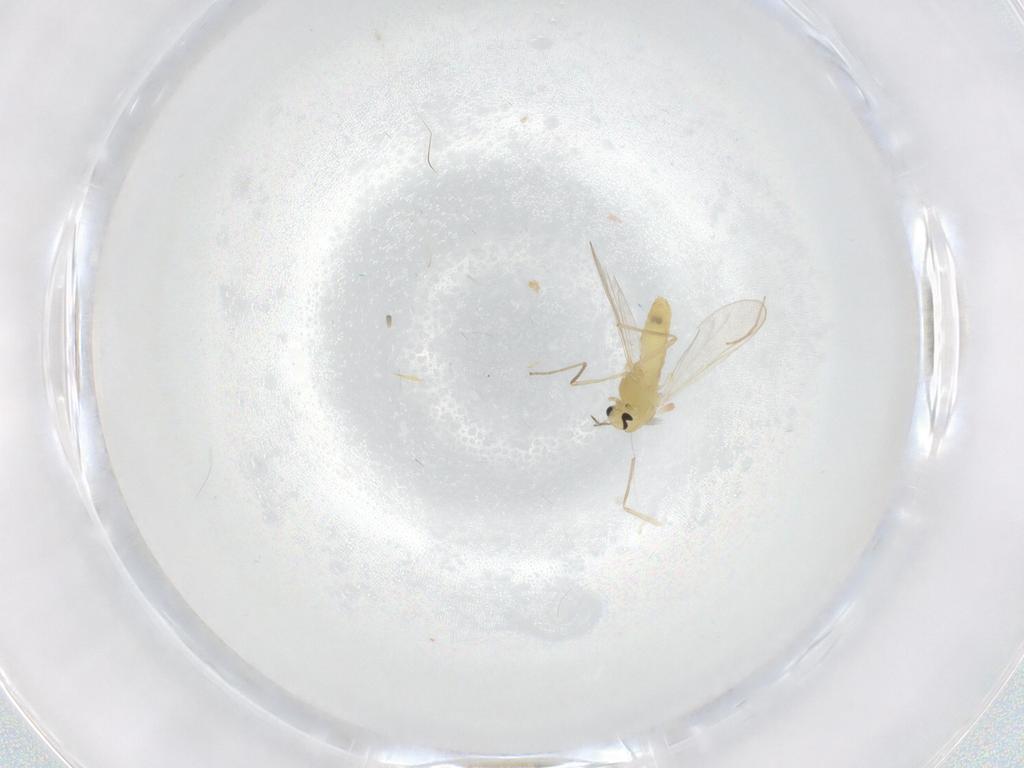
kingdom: Animalia
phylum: Arthropoda
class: Insecta
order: Diptera
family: Chironomidae
